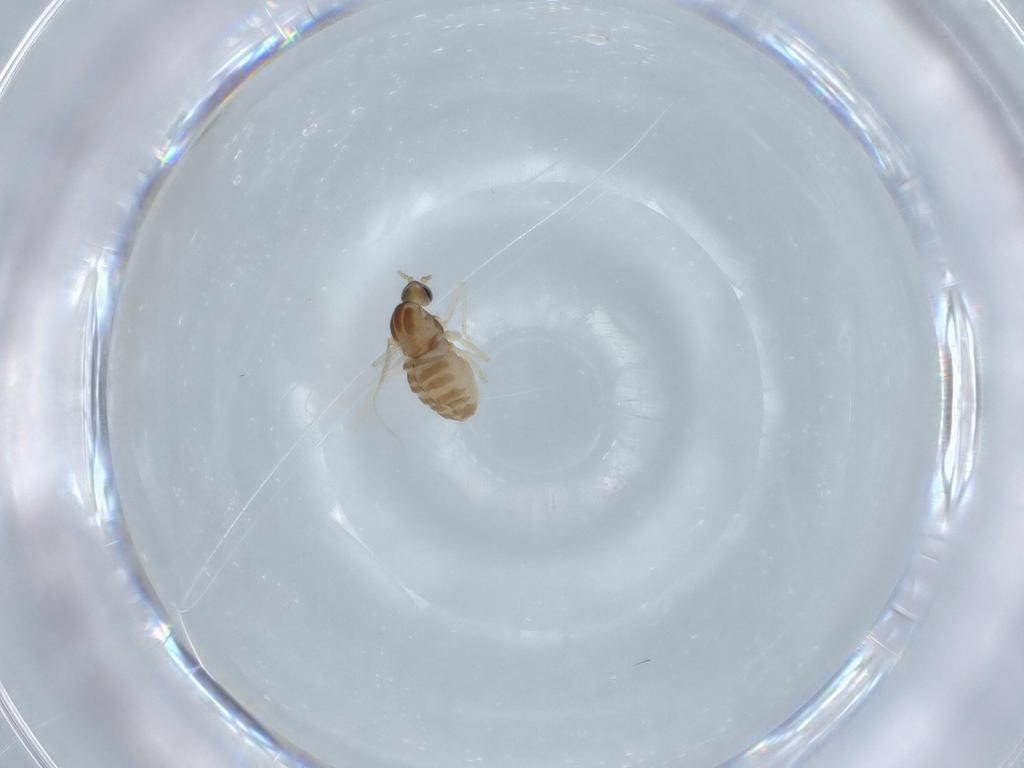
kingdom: Animalia
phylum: Arthropoda
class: Insecta
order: Diptera
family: Cecidomyiidae
